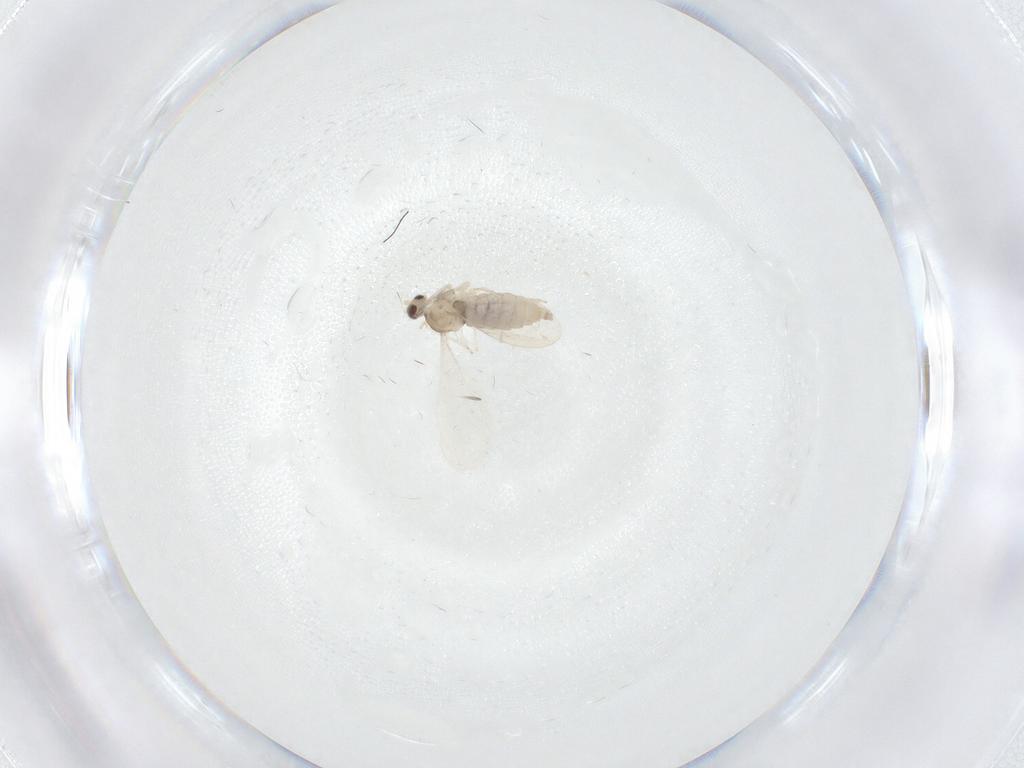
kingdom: Animalia
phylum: Arthropoda
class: Insecta
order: Diptera
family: Cecidomyiidae
